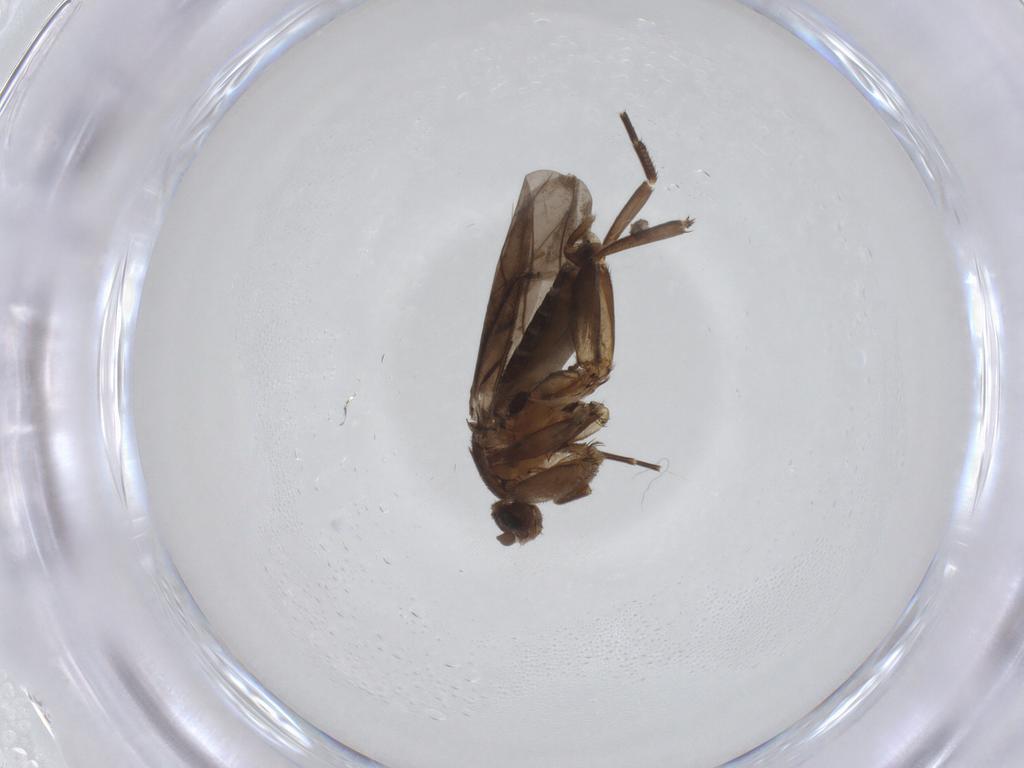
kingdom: Animalia
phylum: Arthropoda
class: Insecta
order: Diptera
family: Phoridae
